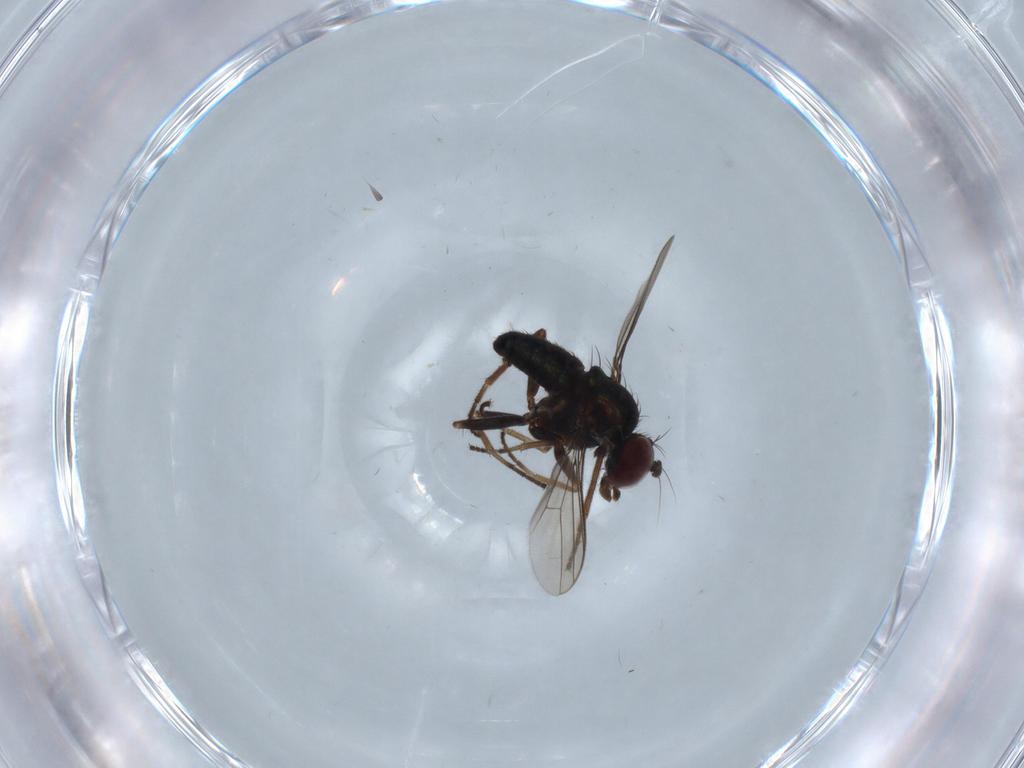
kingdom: Animalia
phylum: Arthropoda
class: Insecta
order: Diptera
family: Dolichopodidae
